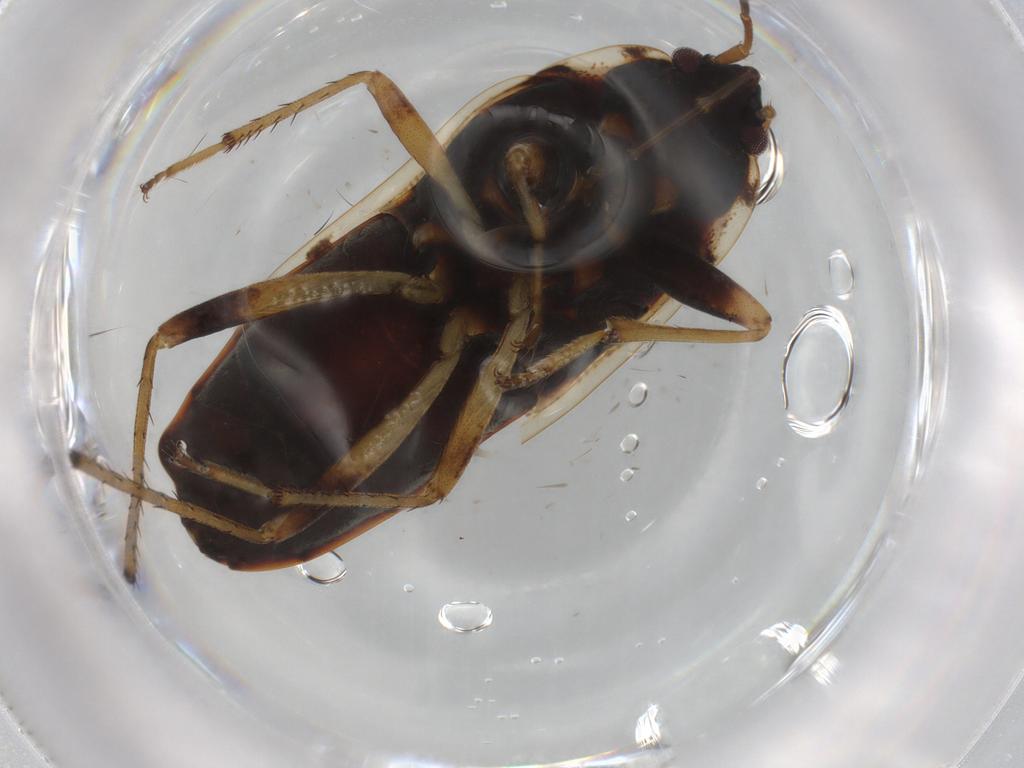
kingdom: Animalia
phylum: Arthropoda
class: Insecta
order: Hemiptera
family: Rhyparochromidae
